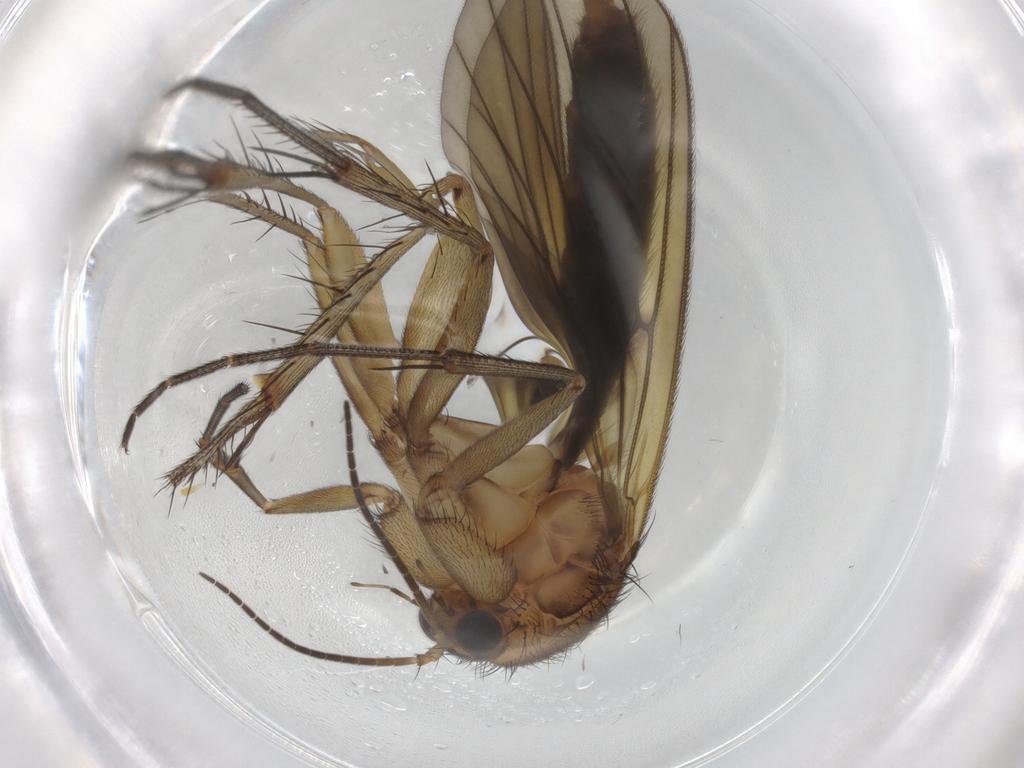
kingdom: Animalia
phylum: Arthropoda
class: Insecta
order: Diptera
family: Mycetophilidae
